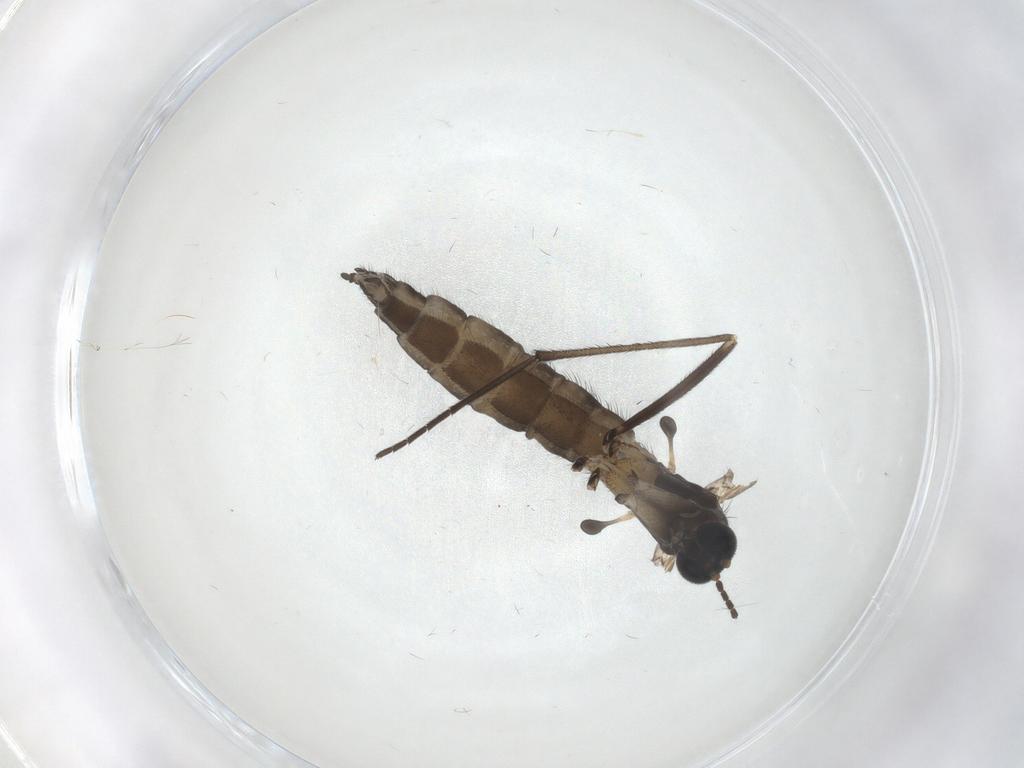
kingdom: Animalia
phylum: Arthropoda
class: Insecta
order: Diptera
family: Sciaridae
